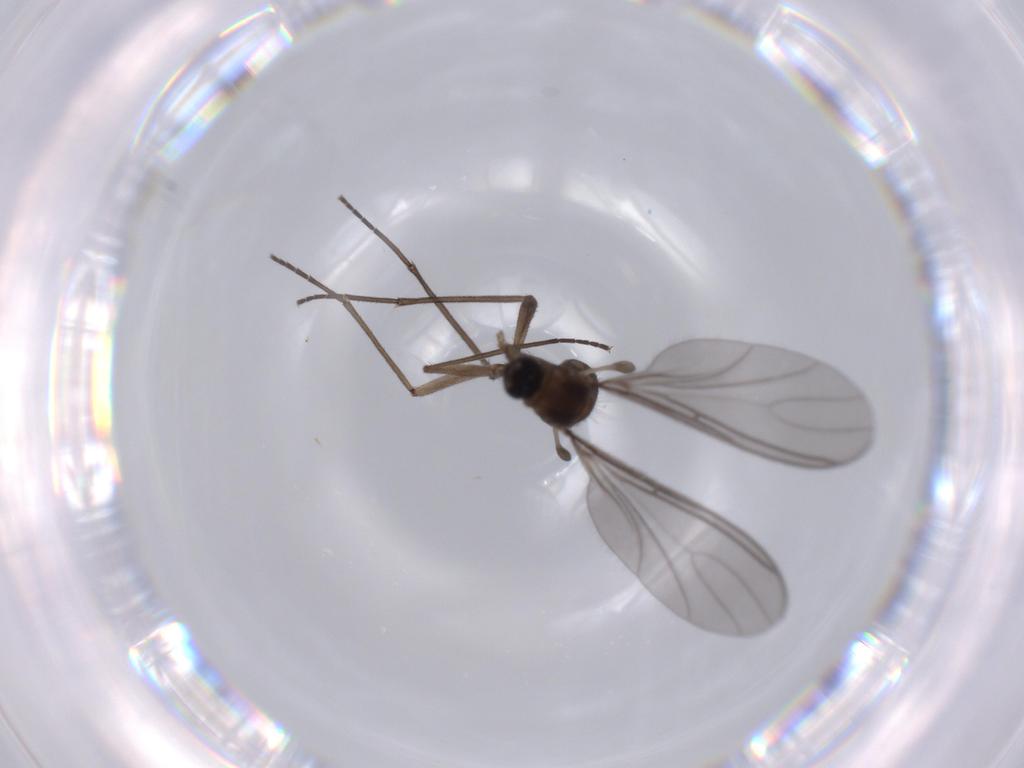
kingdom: Animalia
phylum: Arthropoda
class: Insecta
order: Diptera
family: Sciaridae
